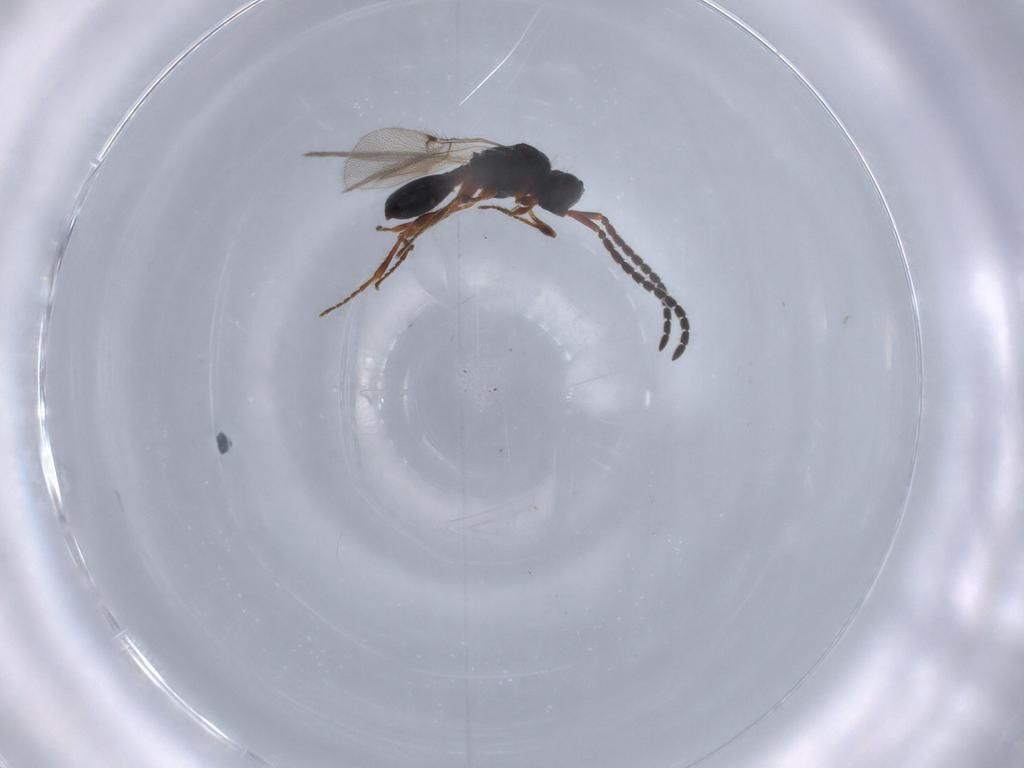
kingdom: Animalia
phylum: Arthropoda
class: Insecta
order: Hymenoptera
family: Diapriidae
